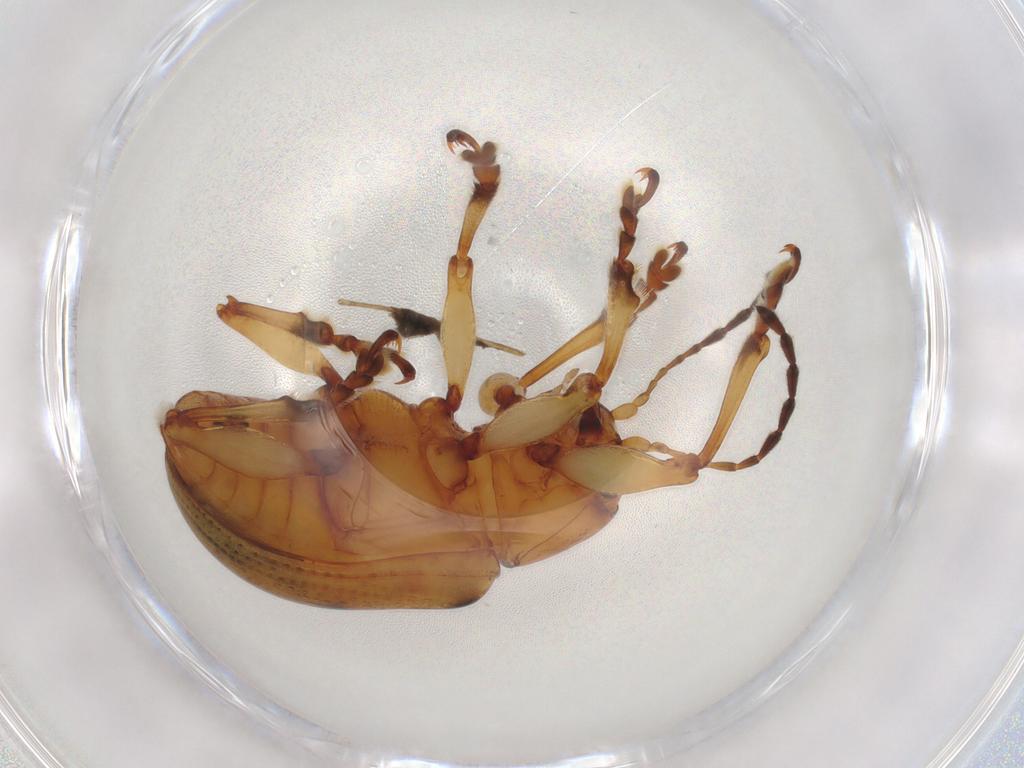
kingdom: Animalia
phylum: Arthropoda
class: Insecta
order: Coleoptera
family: Chrysomelidae
